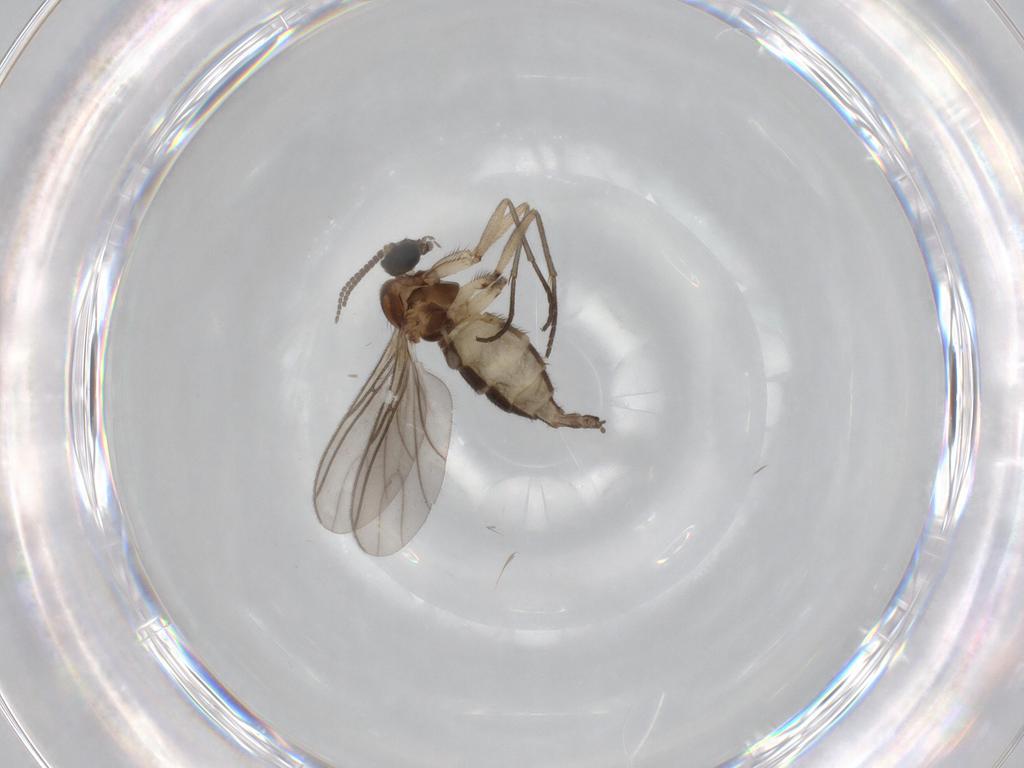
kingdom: Animalia
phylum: Arthropoda
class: Insecta
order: Diptera
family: Sciaridae
